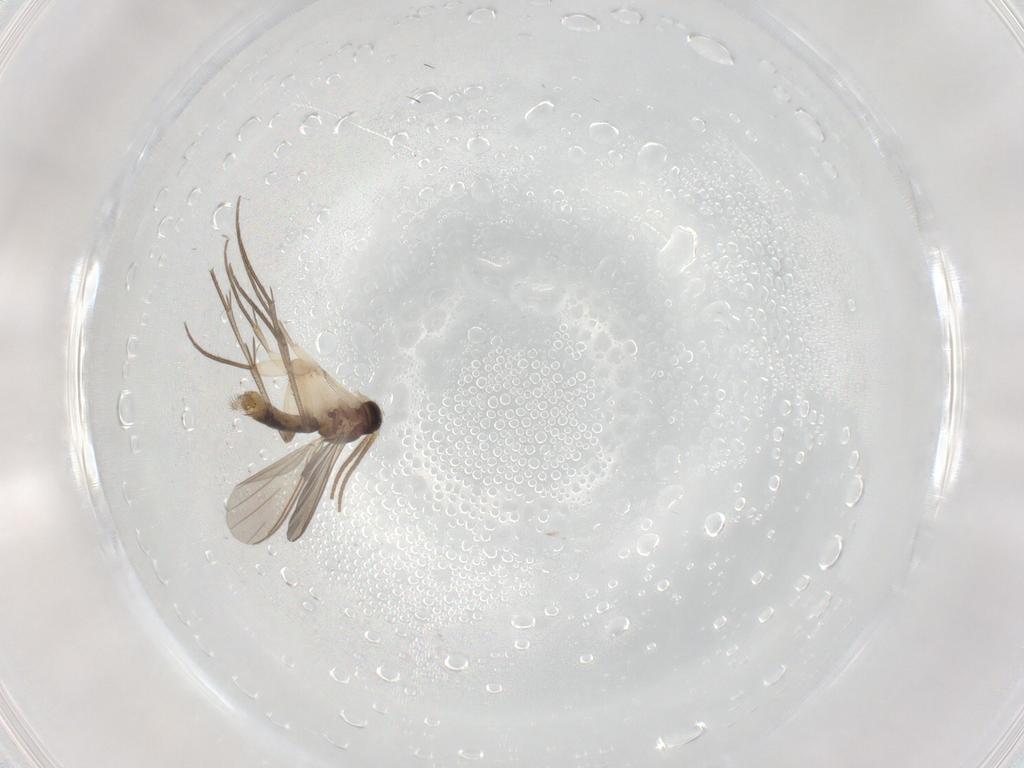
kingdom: Animalia
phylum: Arthropoda
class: Insecta
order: Diptera
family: Mycetophilidae
